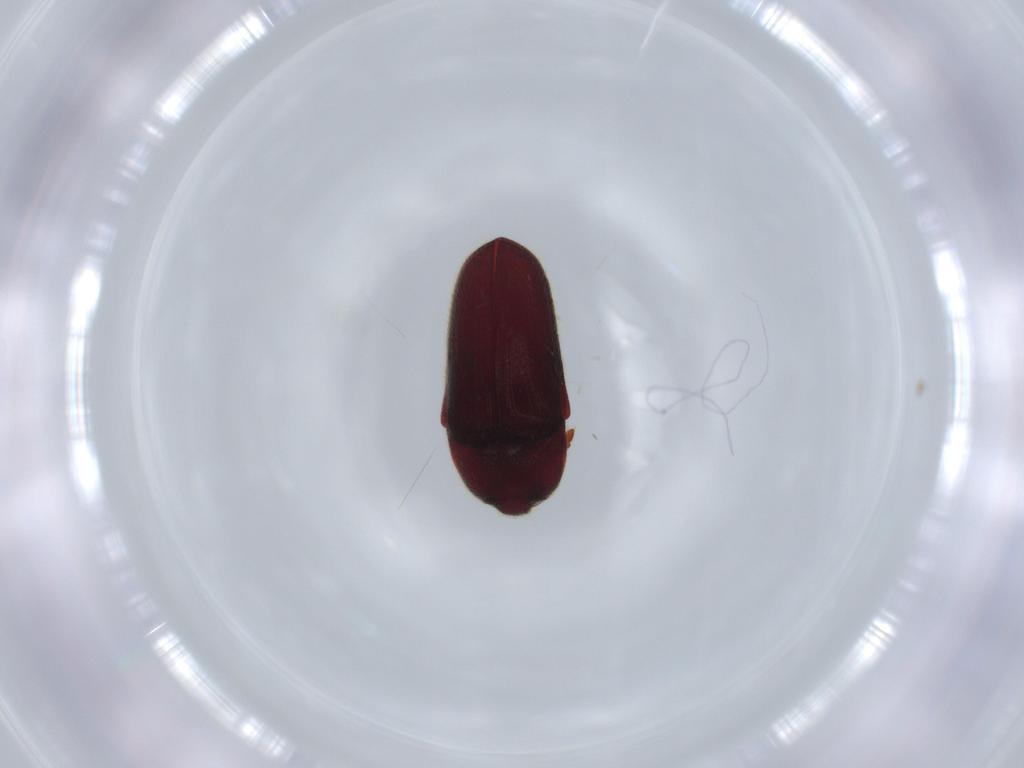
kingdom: Animalia
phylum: Arthropoda
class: Insecta
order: Coleoptera
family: Throscidae
